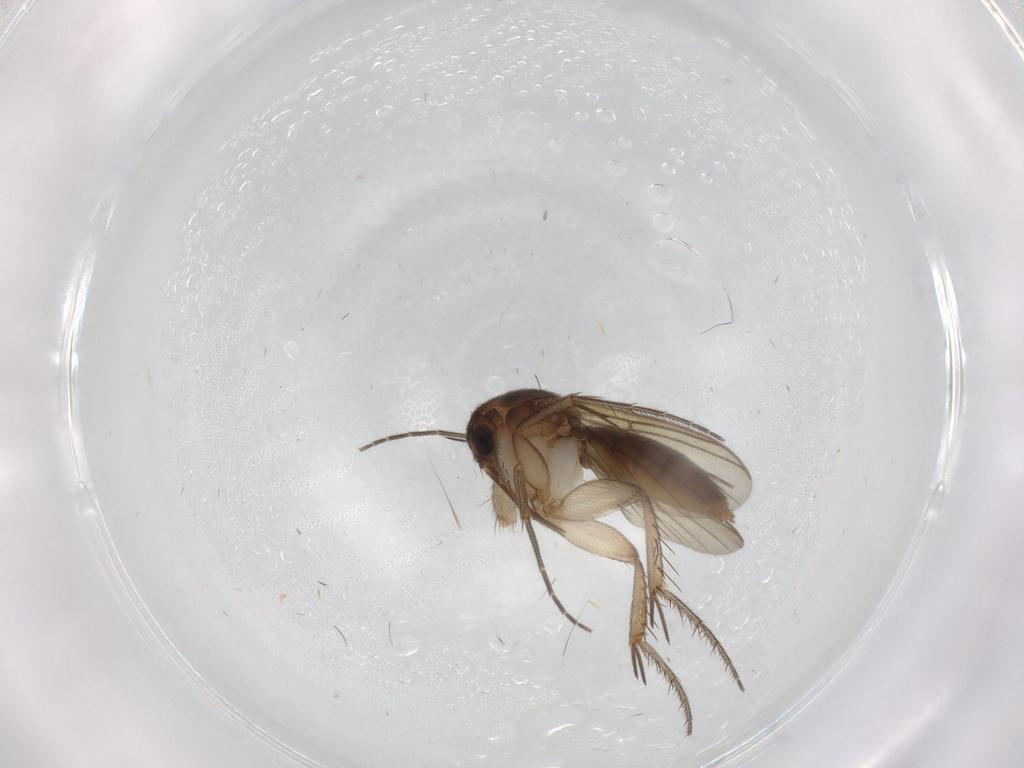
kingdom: Animalia
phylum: Arthropoda
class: Insecta
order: Diptera
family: Mycetophilidae
